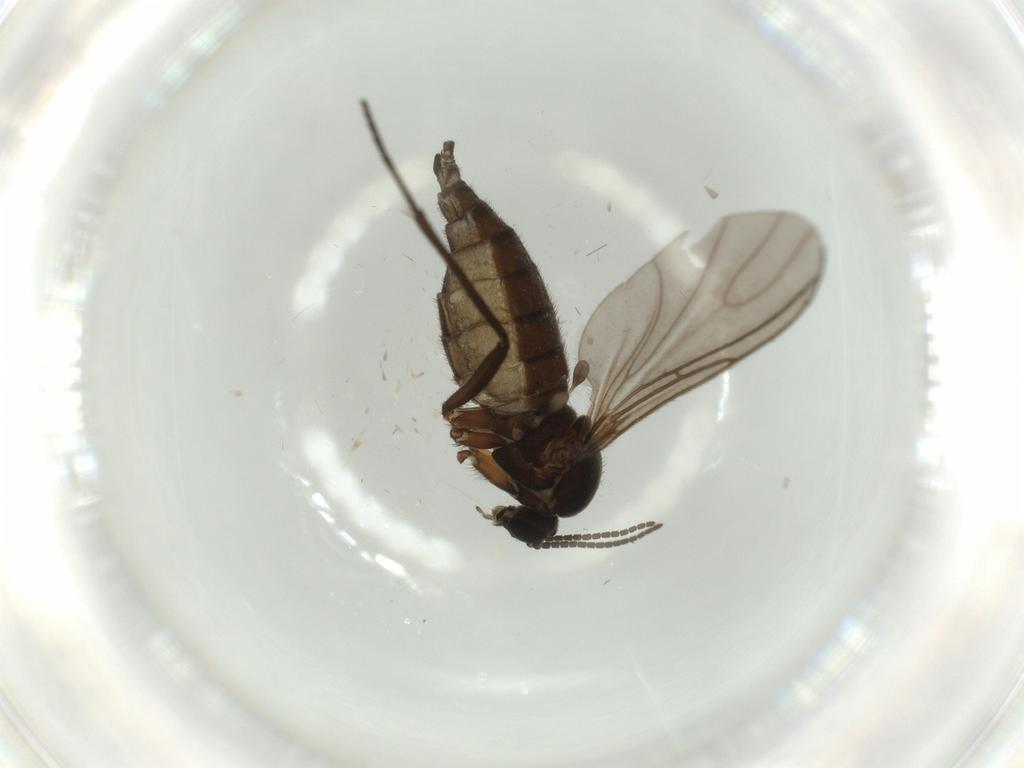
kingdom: Animalia
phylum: Arthropoda
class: Insecta
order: Diptera
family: Sciaridae
